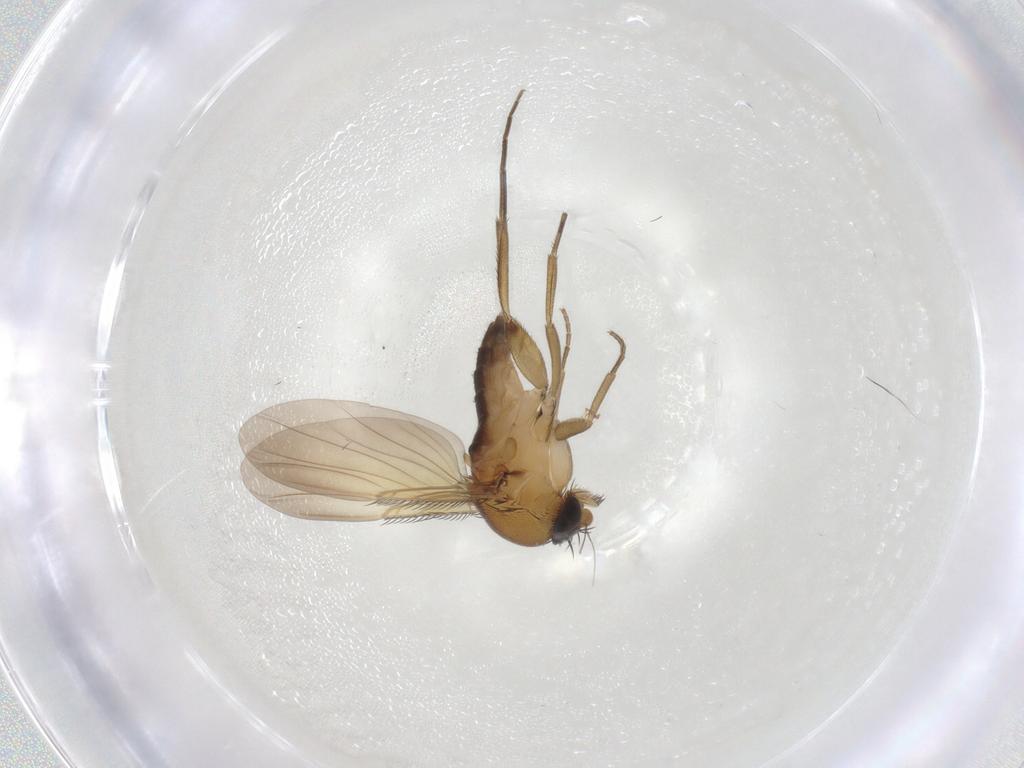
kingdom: Animalia
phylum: Arthropoda
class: Insecta
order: Diptera
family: Phoridae
